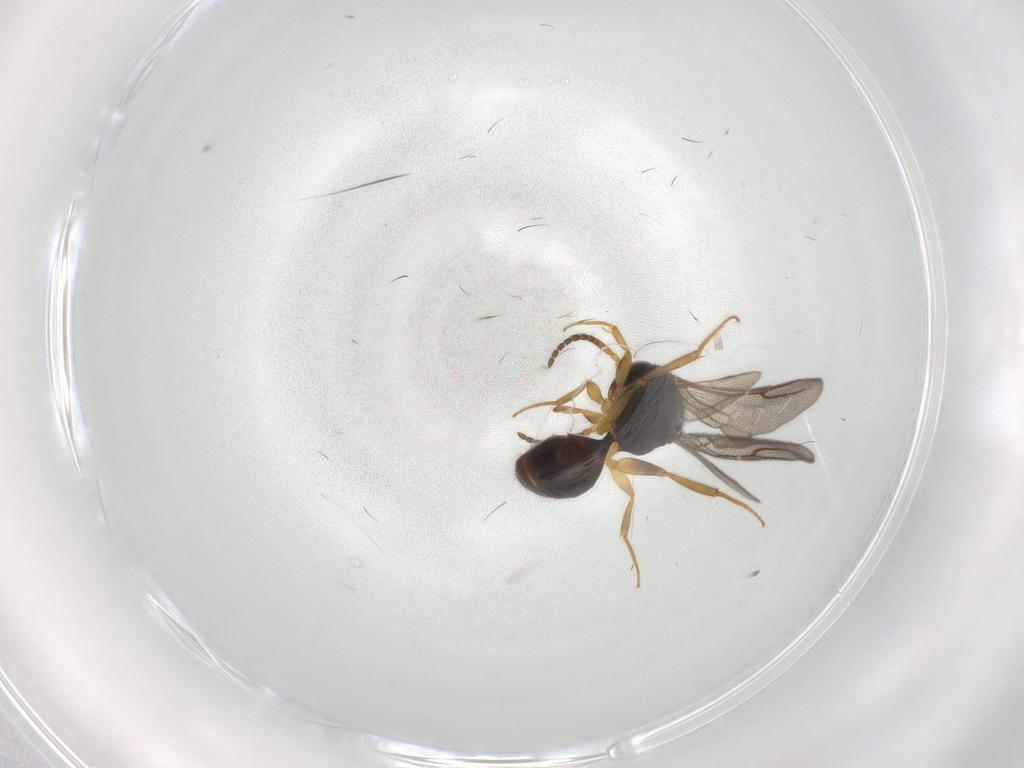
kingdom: Animalia
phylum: Arthropoda
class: Insecta
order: Hymenoptera
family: Bethylidae
